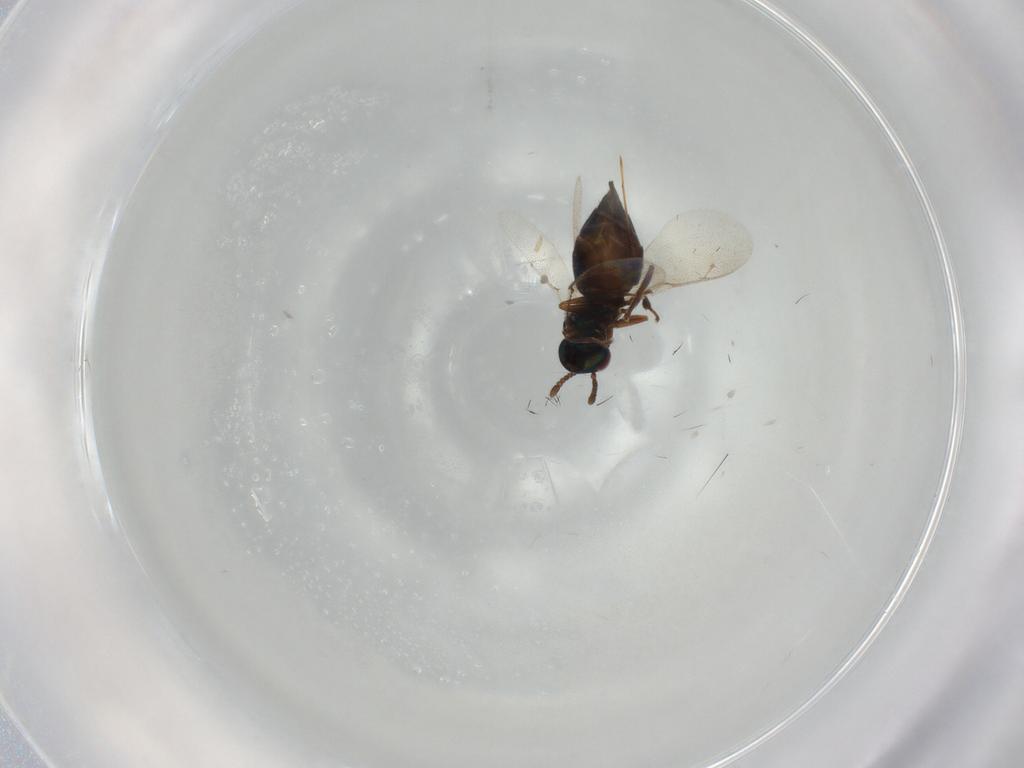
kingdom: Animalia
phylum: Arthropoda
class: Insecta
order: Hymenoptera
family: Pteromalidae
